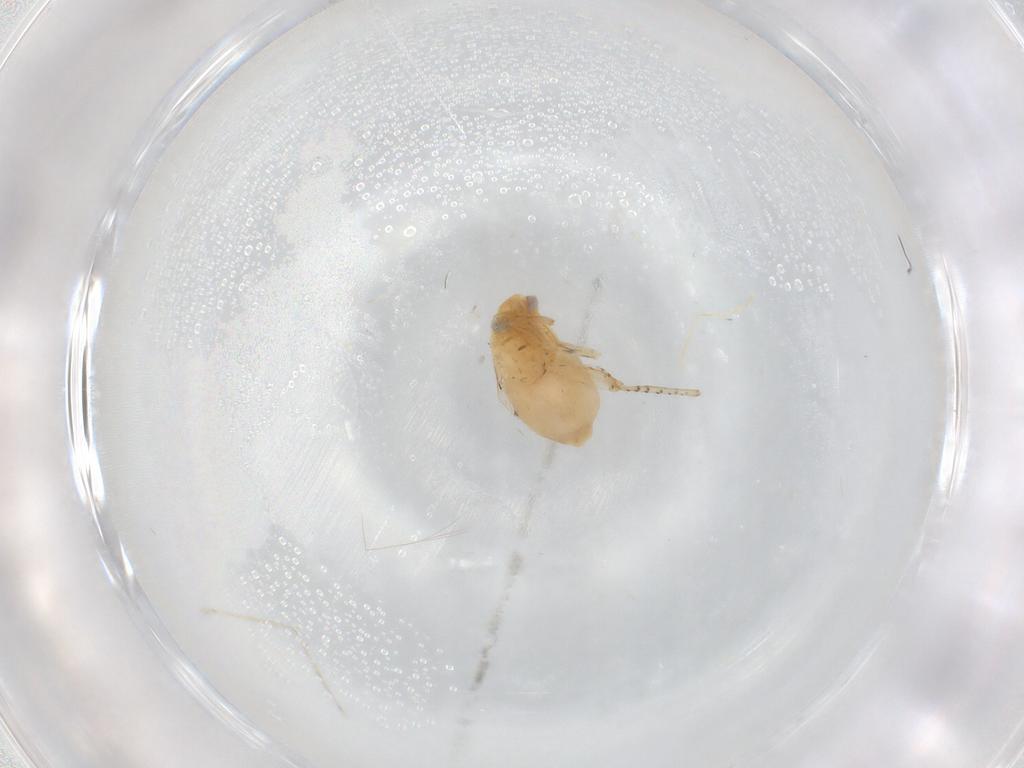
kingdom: Animalia
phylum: Arthropoda
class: Insecta
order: Hemiptera
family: Miridae
